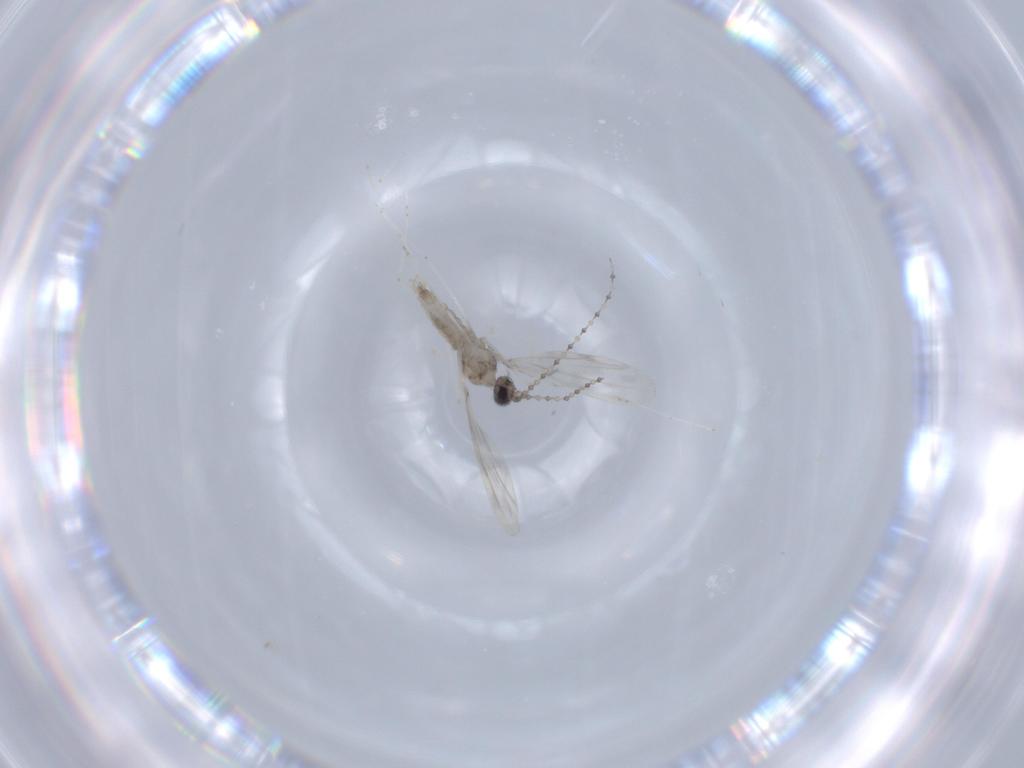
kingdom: Animalia
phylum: Arthropoda
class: Insecta
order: Diptera
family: Cecidomyiidae
